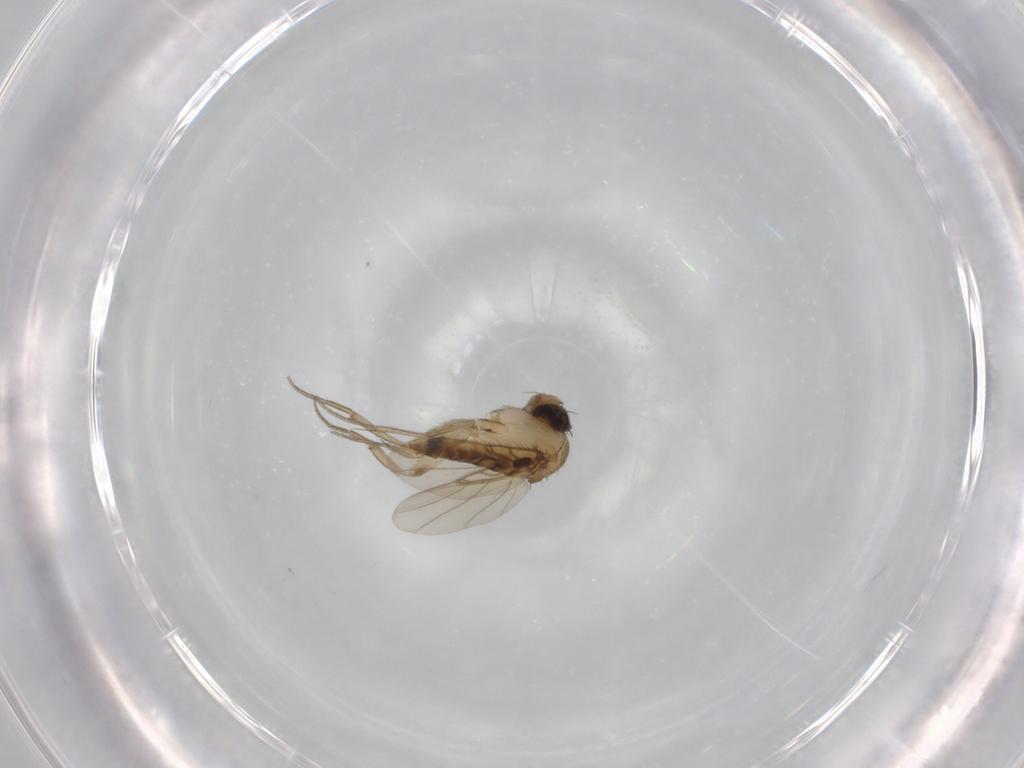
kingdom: Animalia
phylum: Arthropoda
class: Insecta
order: Diptera
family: Phoridae
